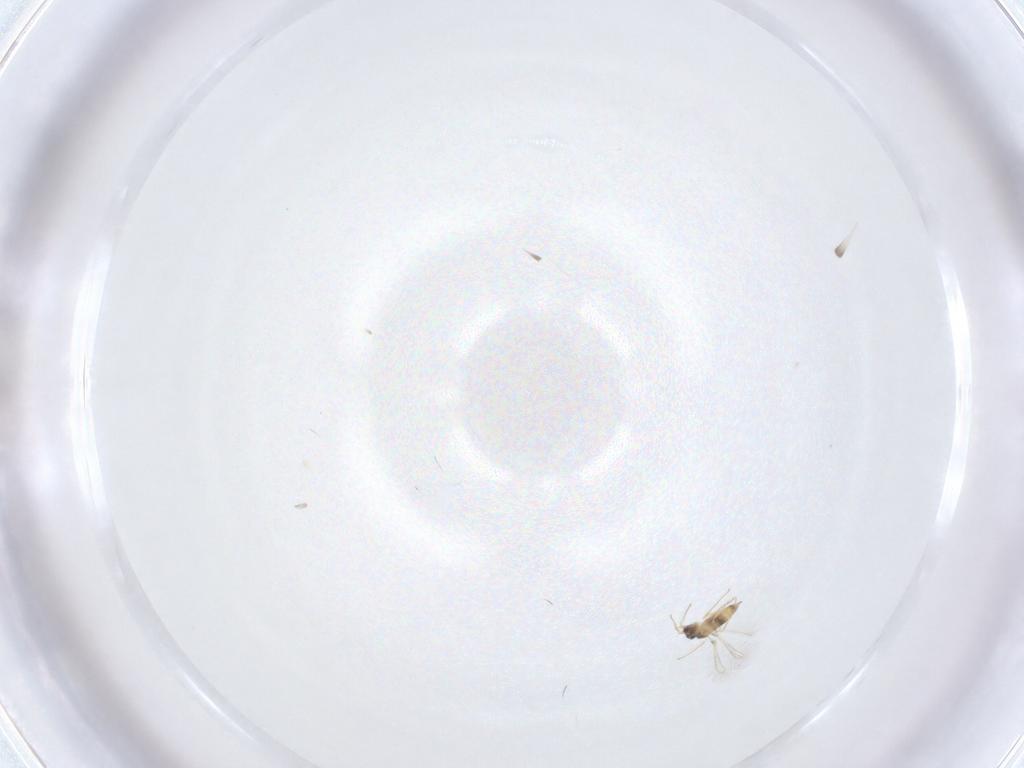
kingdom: Animalia
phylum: Arthropoda
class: Insecta
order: Hymenoptera
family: Mymaridae
